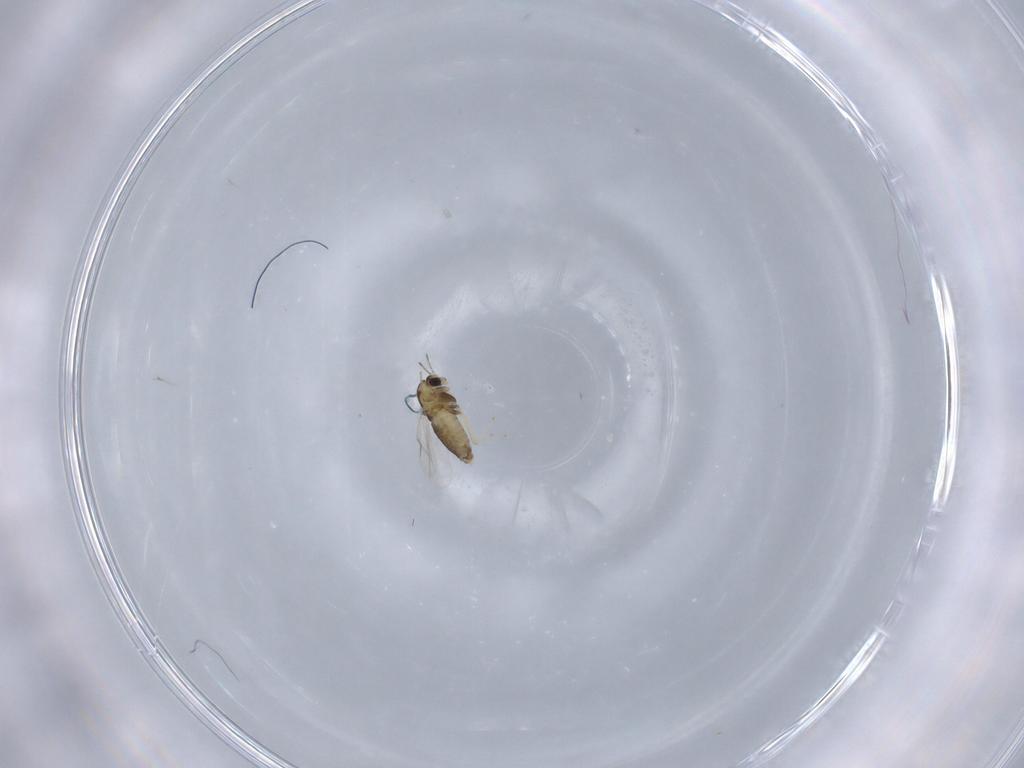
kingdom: Animalia
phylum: Arthropoda
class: Insecta
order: Diptera
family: Chironomidae
